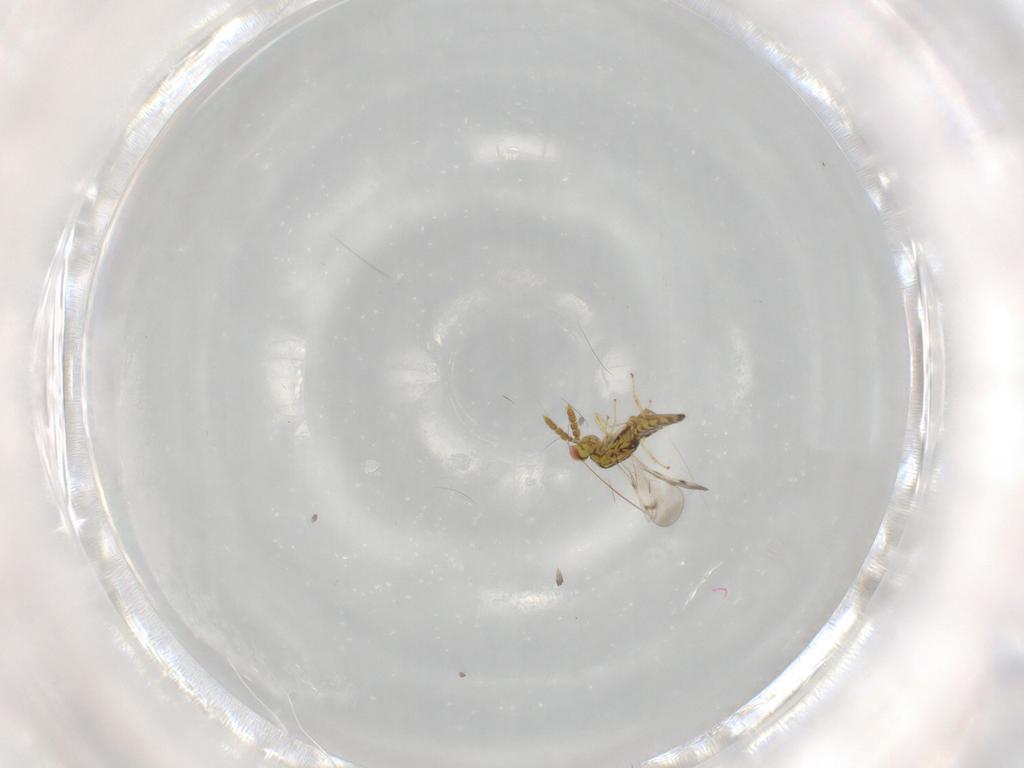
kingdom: Animalia
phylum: Arthropoda
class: Insecta
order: Hymenoptera
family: Eulophidae
